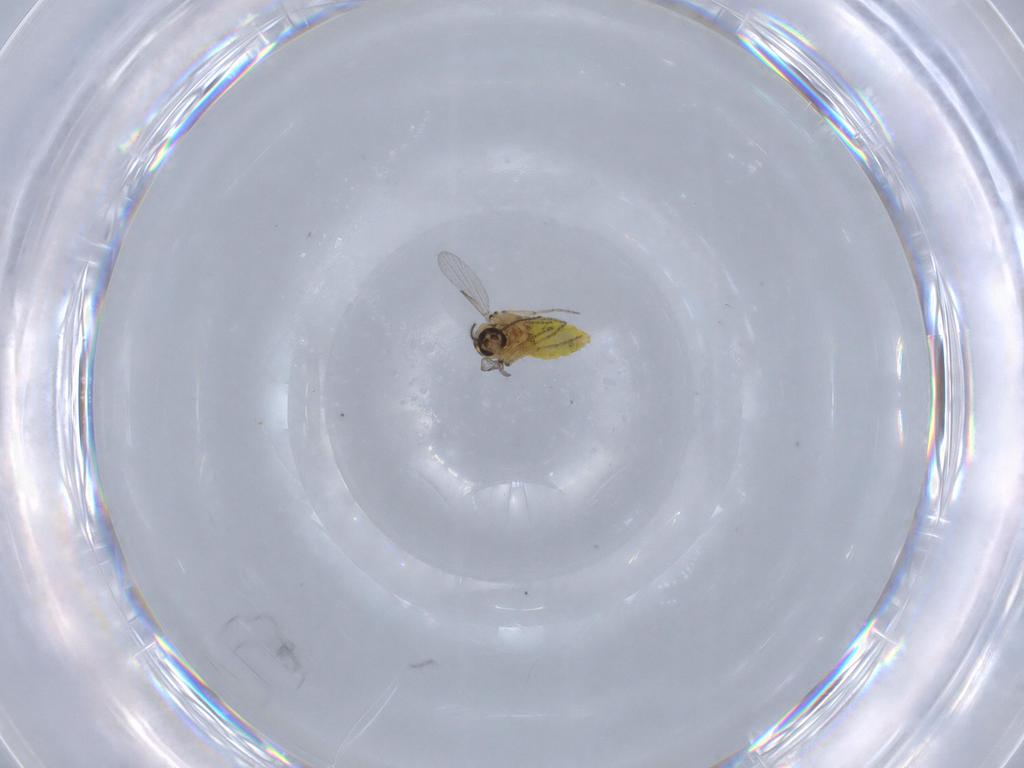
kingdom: Animalia
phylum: Arthropoda
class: Insecta
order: Diptera
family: Ceratopogonidae
